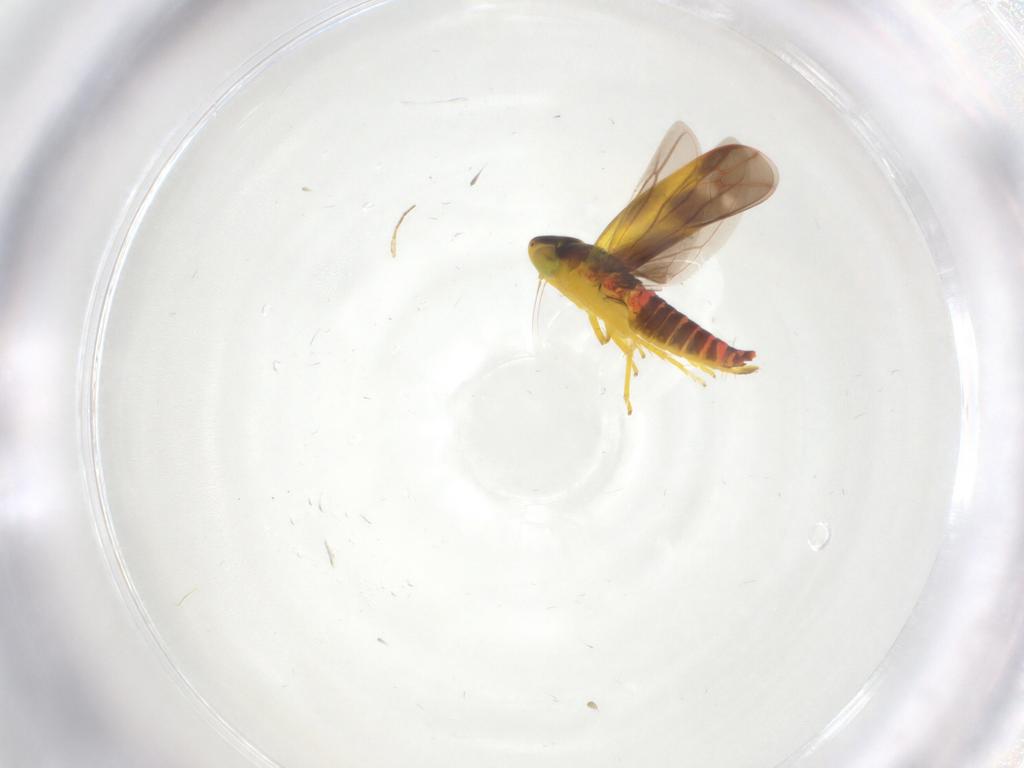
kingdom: Animalia
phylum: Arthropoda
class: Insecta
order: Hemiptera
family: Cicadellidae
